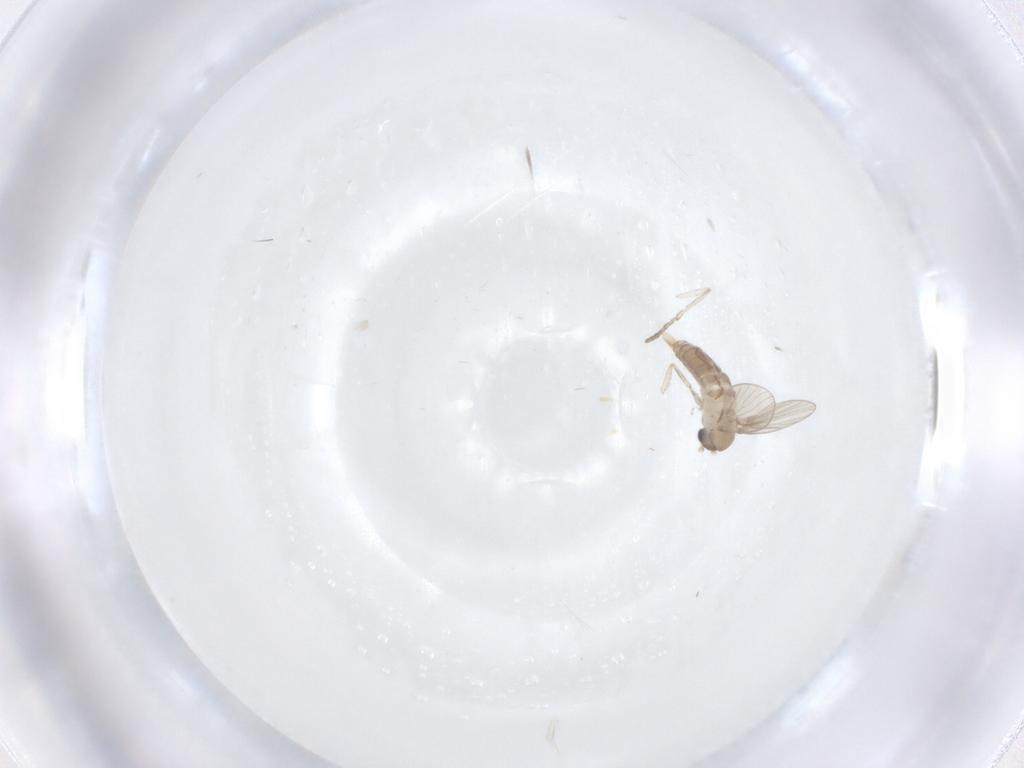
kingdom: Animalia
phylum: Arthropoda
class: Insecta
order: Diptera
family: Psychodidae
